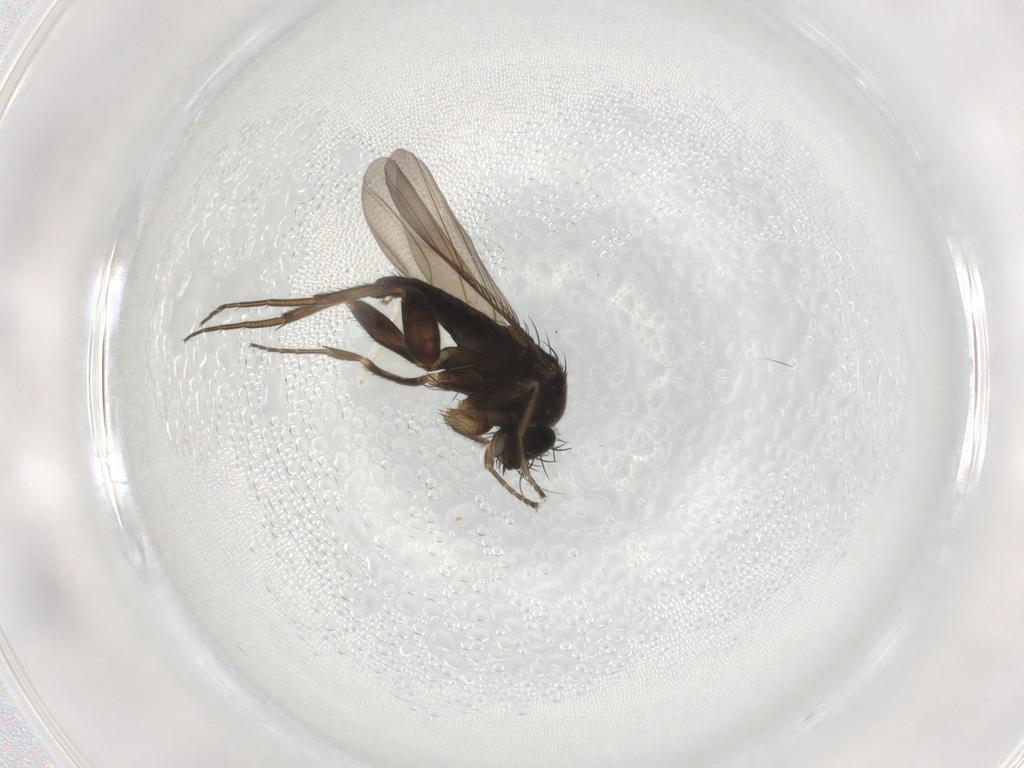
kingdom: Animalia
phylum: Arthropoda
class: Insecta
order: Diptera
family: Phoridae
